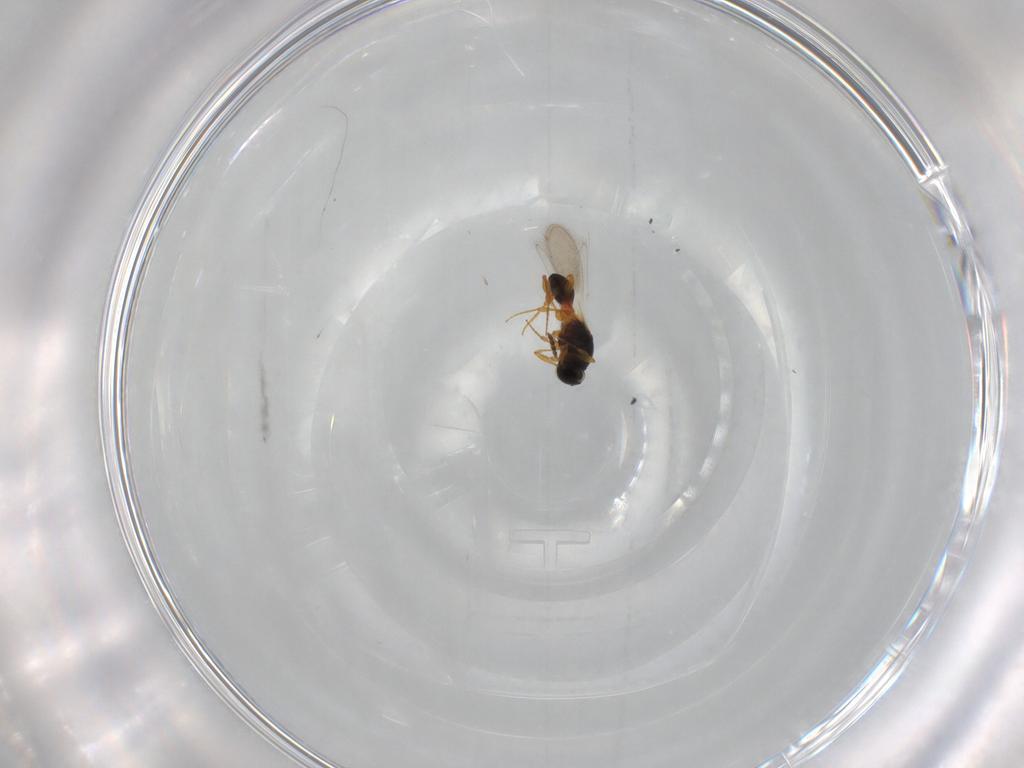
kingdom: Animalia
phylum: Arthropoda
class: Insecta
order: Hymenoptera
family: Platygastridae
